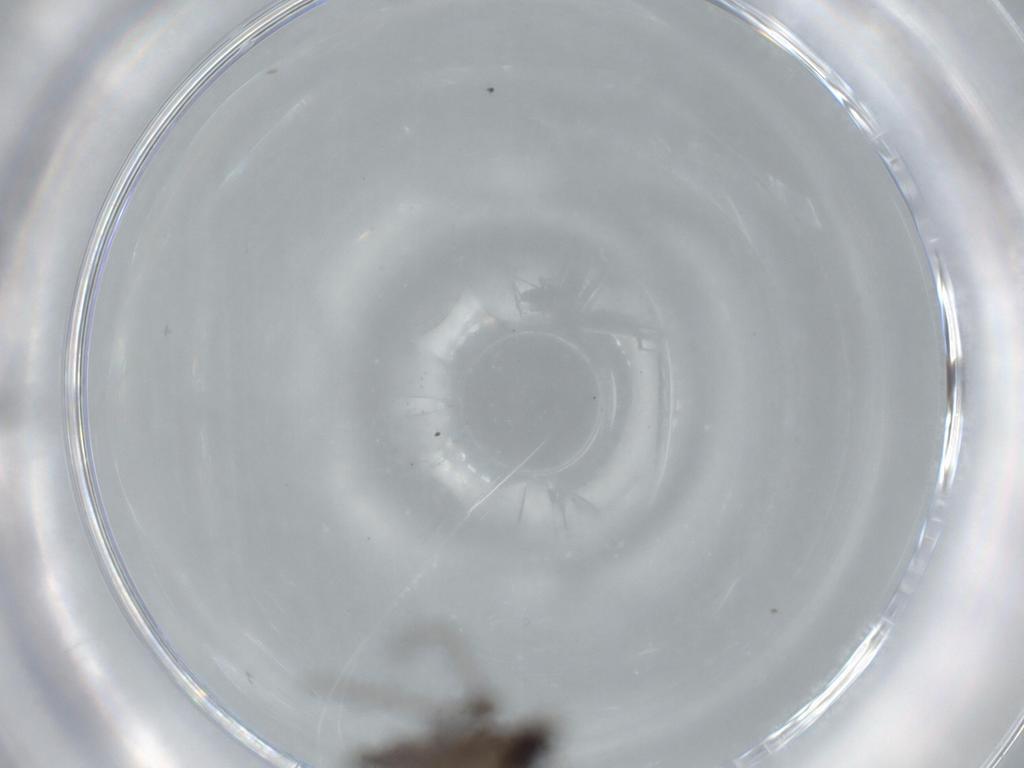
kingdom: Animalia
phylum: Arthropoda
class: Insecta
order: Diptera
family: Sciaridae
